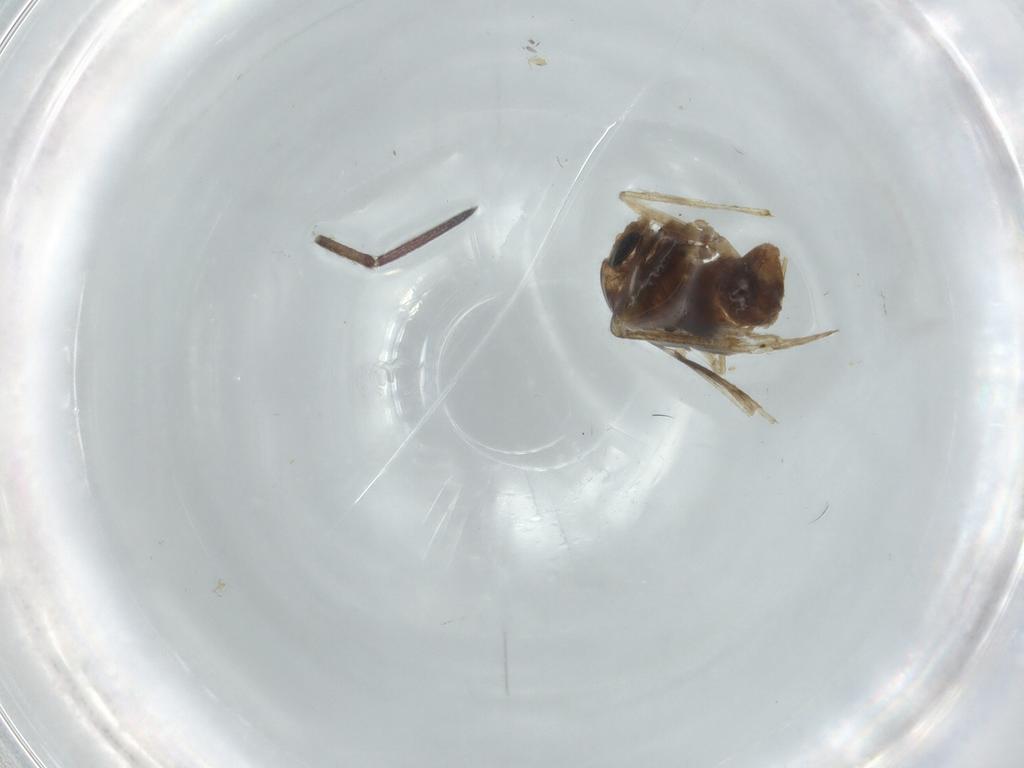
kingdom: Animalia
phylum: Arthropoda
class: Insecta
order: Diptera
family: Chironomidae
